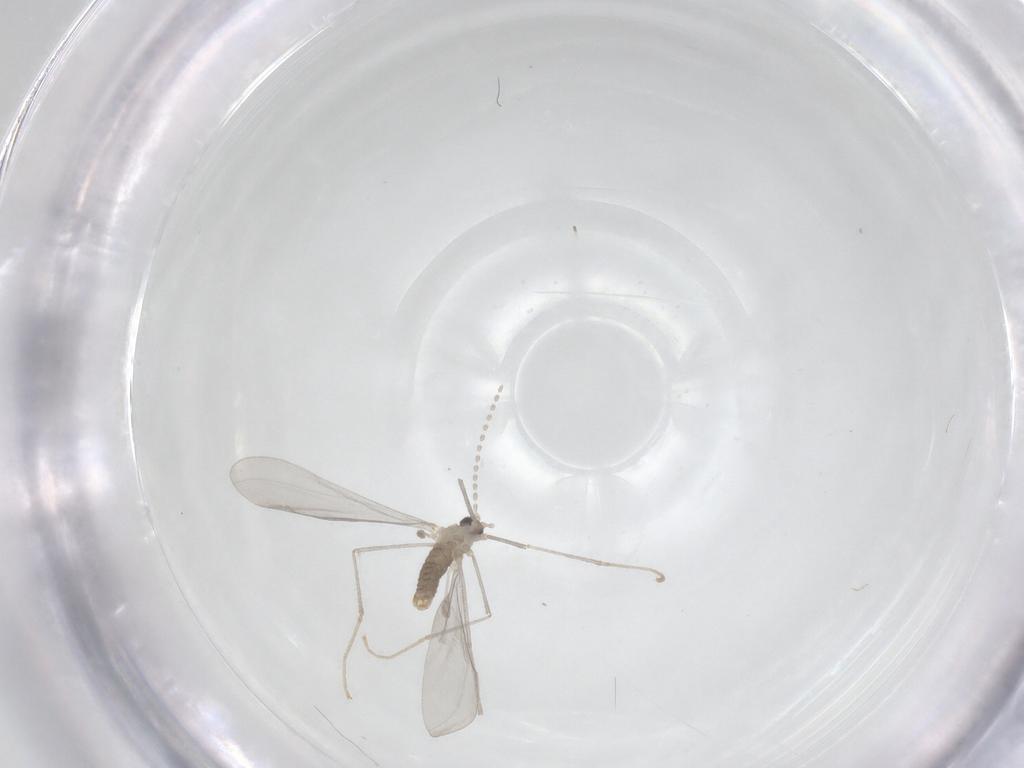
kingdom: Animalia
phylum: Arthropoda
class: Insecta
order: Diptera
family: Cecidomyiidae
